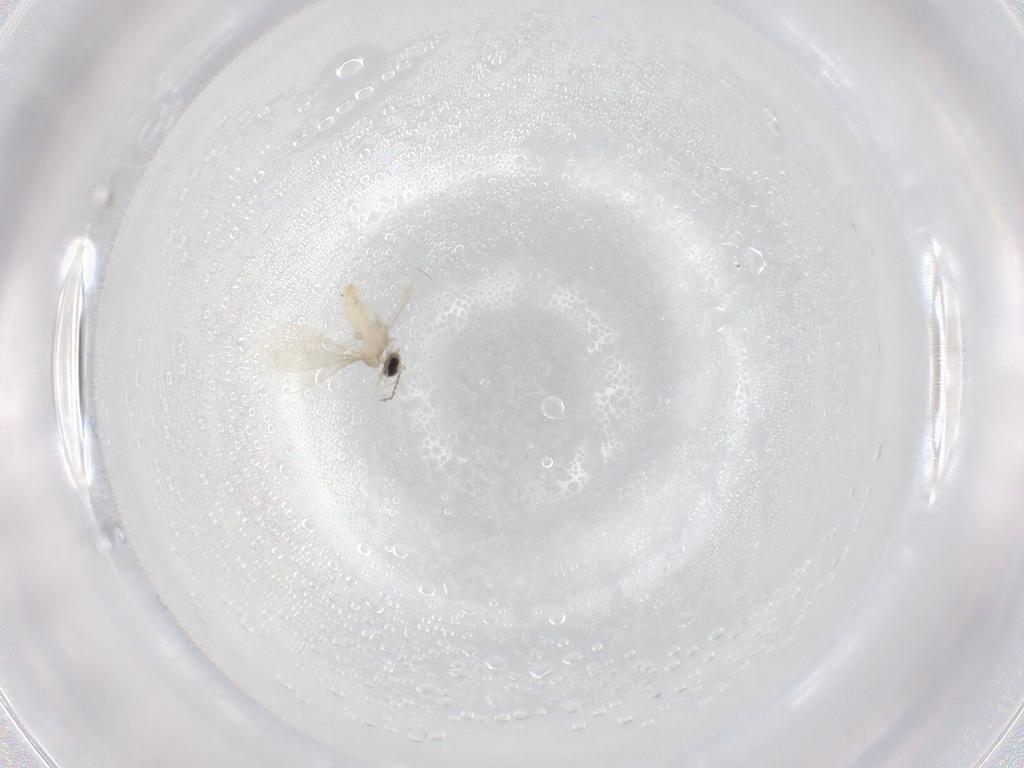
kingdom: Animalia
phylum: Arthropoda
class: Insecta
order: Diptera
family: Cecidomyiidae
